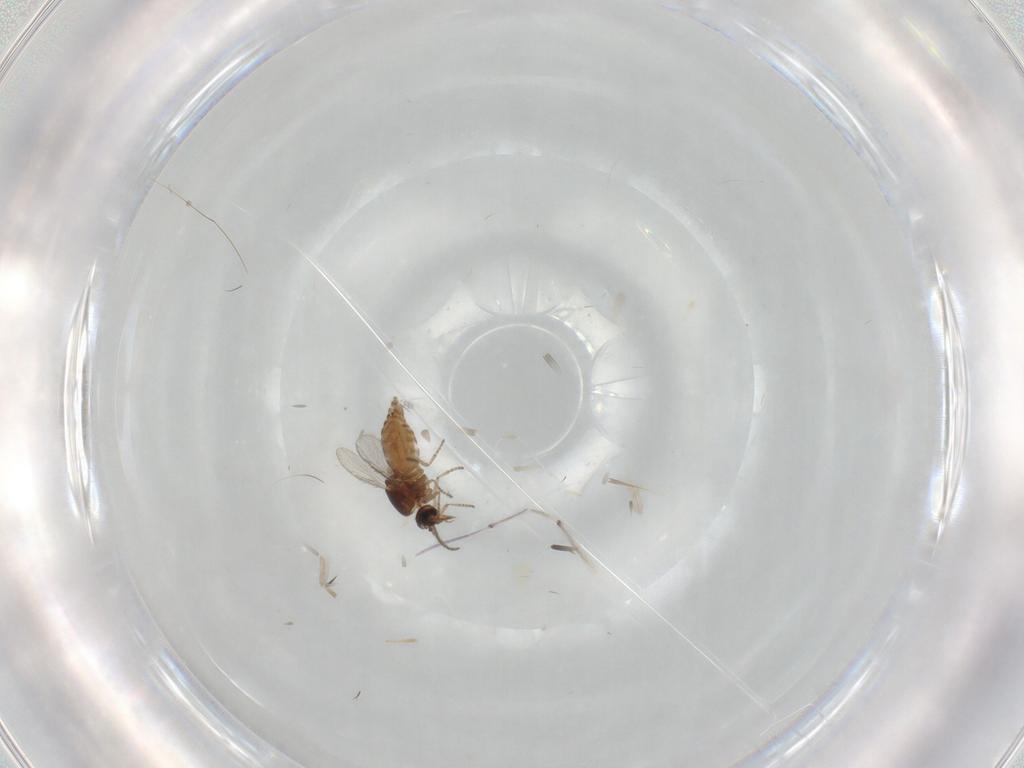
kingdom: Animalia
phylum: Arthropoda
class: Insecta
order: Diptera
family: Ceratopogonidae
